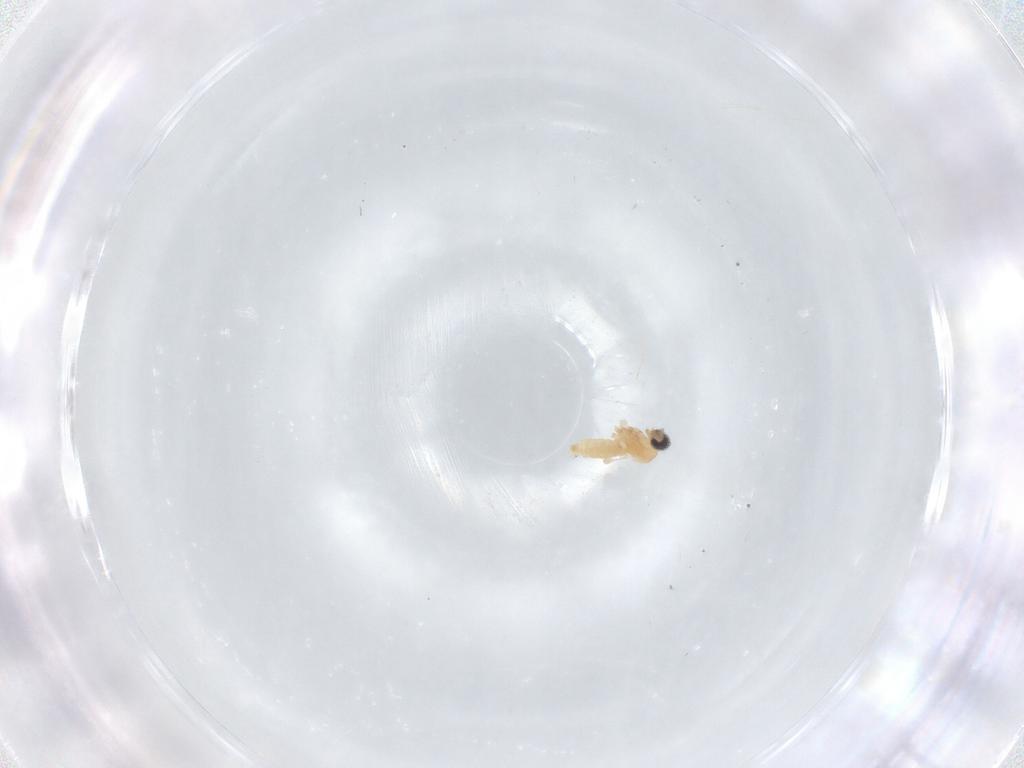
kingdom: Animalia
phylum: Arthropoda
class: Insecta
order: Diptera
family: Cecidomyiidae
